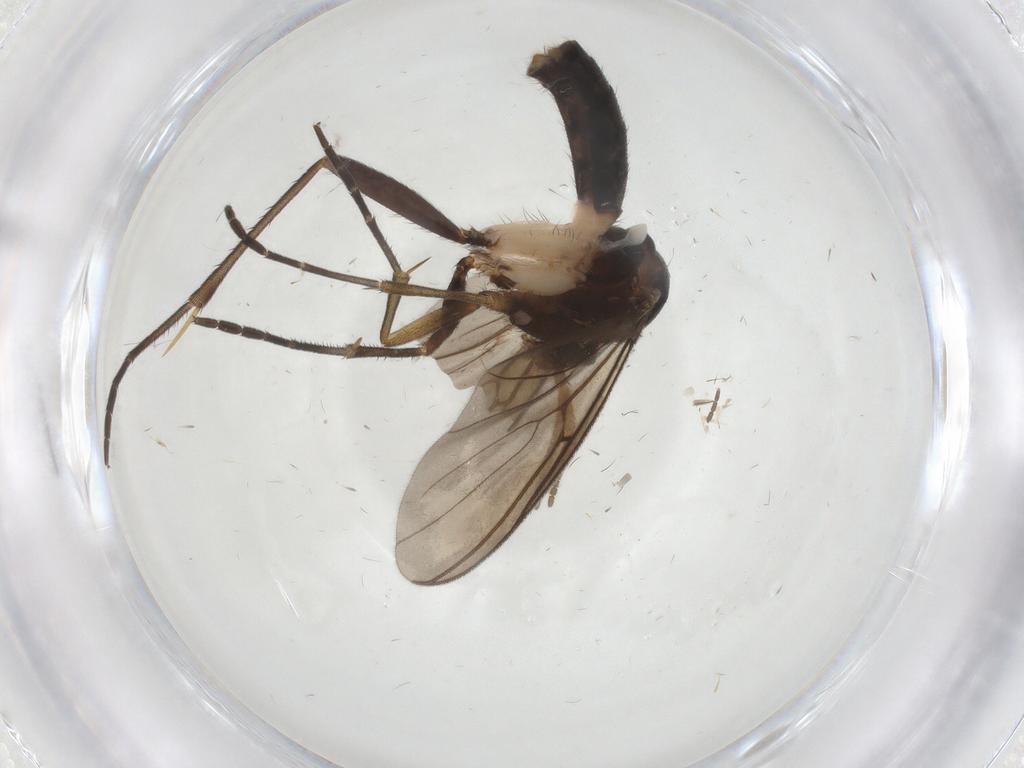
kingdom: Animalia
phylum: Arthropoda
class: Insecta
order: Diptera
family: Cecidomyiidae
